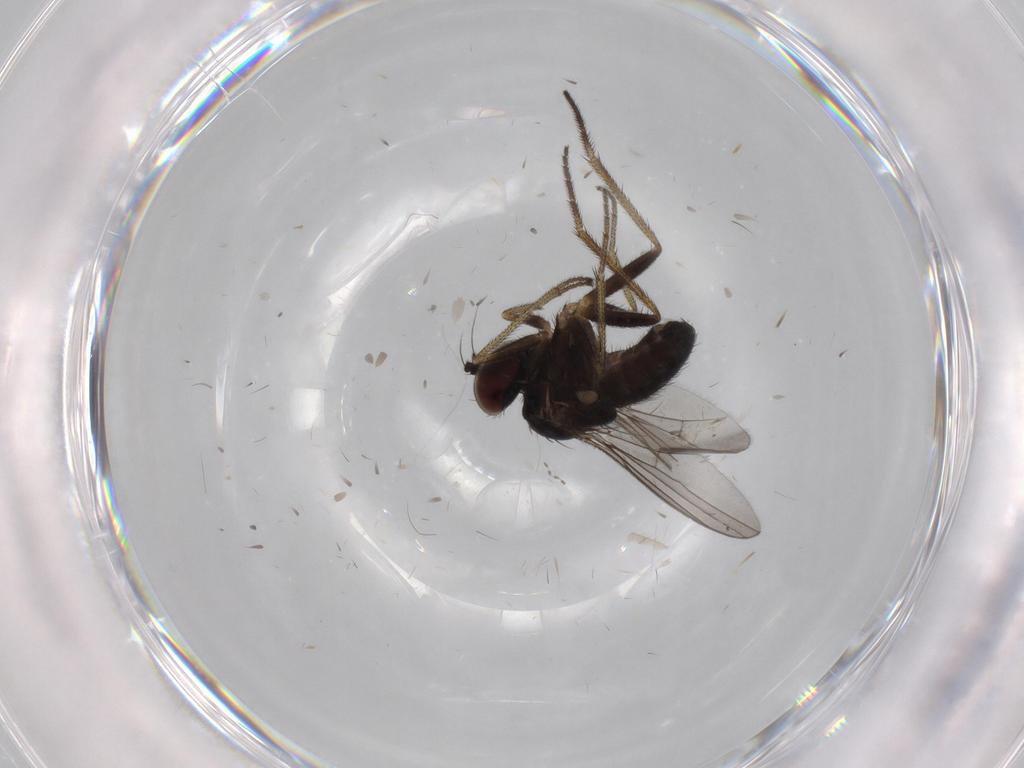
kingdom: Animalia
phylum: Arthropoda
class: Insecta
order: Diptera
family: Dolichopodidae
